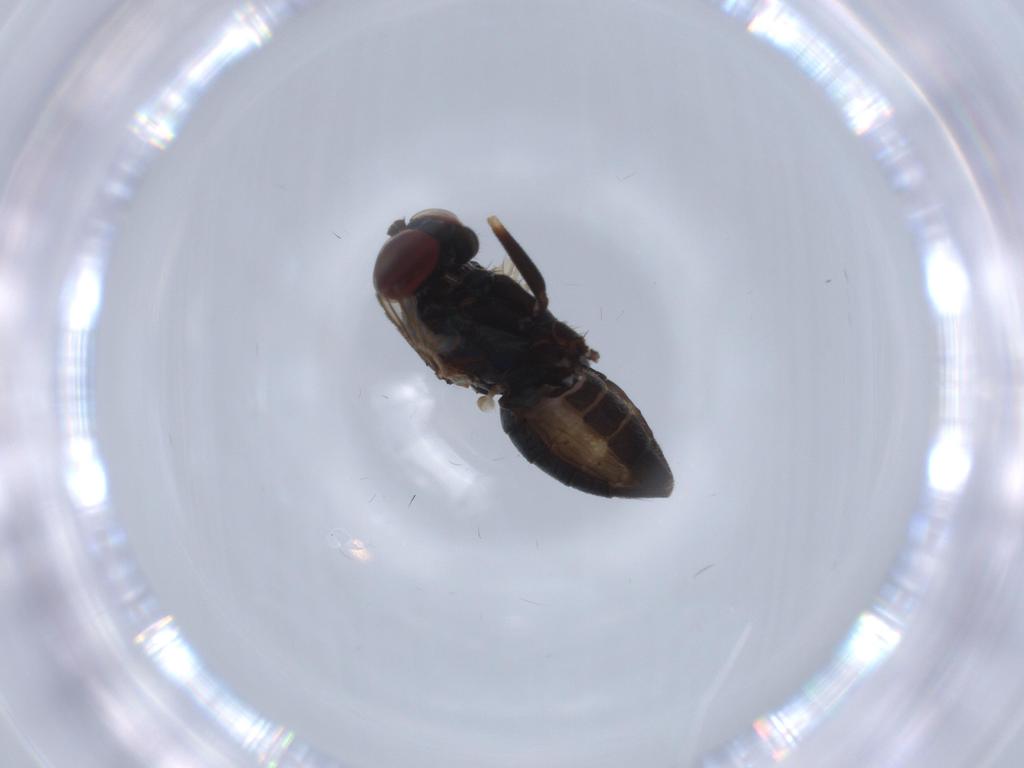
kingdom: Animalia
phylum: Arthropoda
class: Insecta
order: Diptera
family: Dolichopodidae
